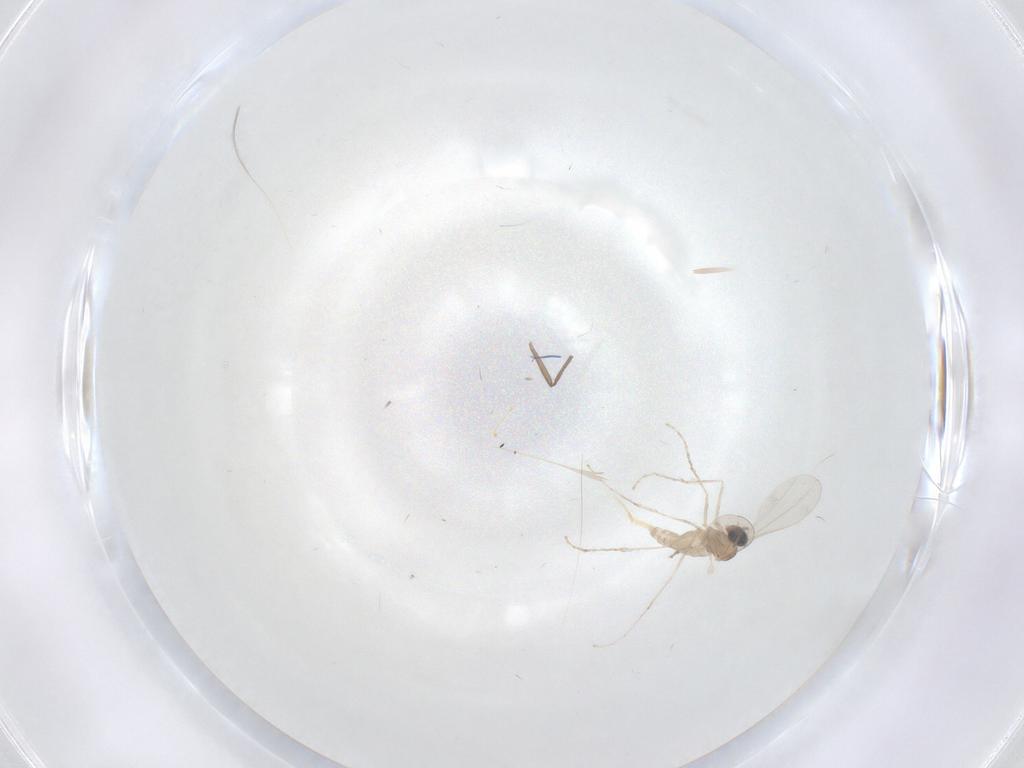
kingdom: Animalia
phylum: Arthropoda
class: Insecta
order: Diptera
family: Cecidomyiidae
